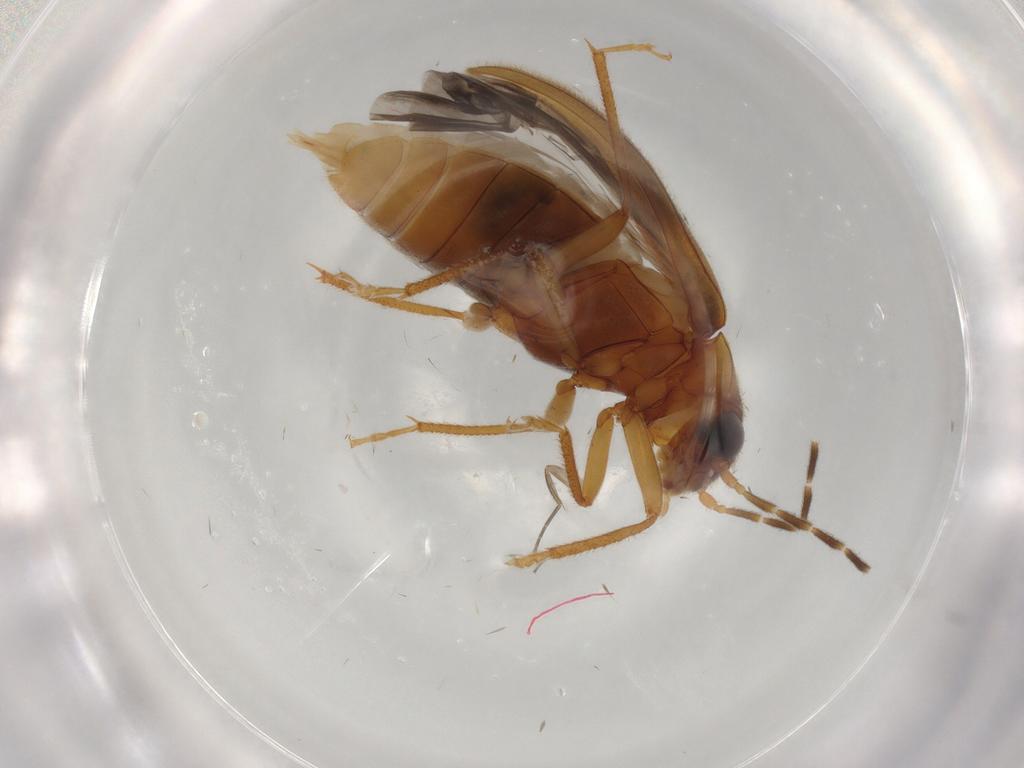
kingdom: Animalia
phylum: Arthropoda
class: Insecta
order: Coleoptera
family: Ptilodactylidae
